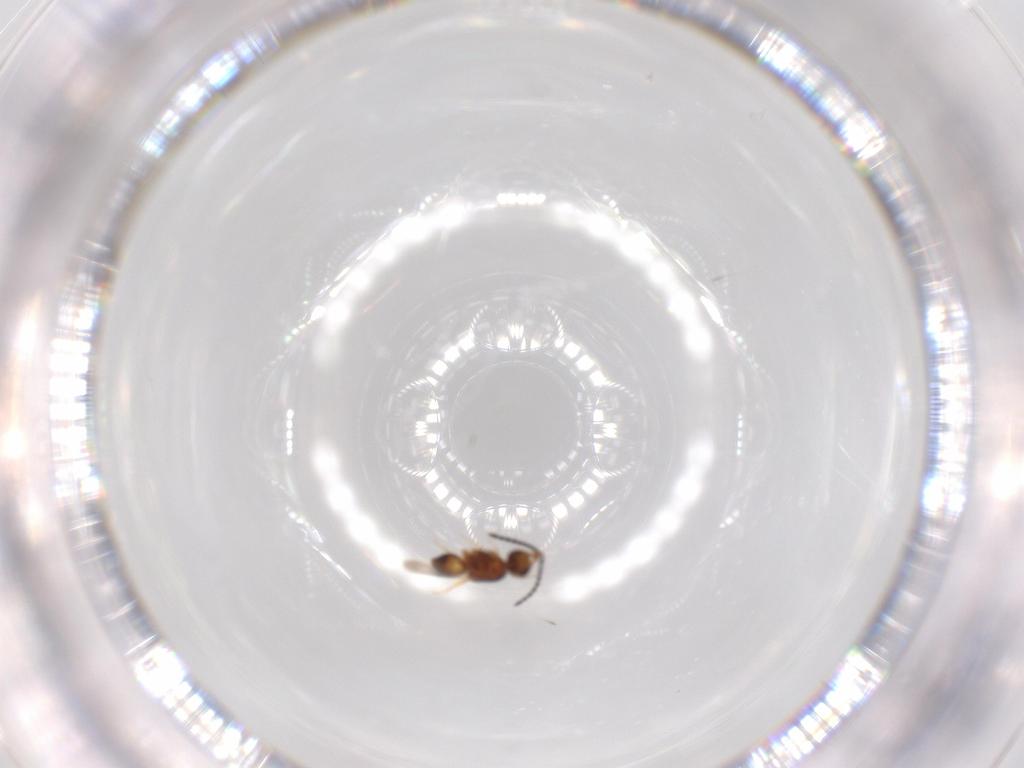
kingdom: Animalia
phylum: Arthropoda
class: Insecta
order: Hymenoptera
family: Ceraphronidae
